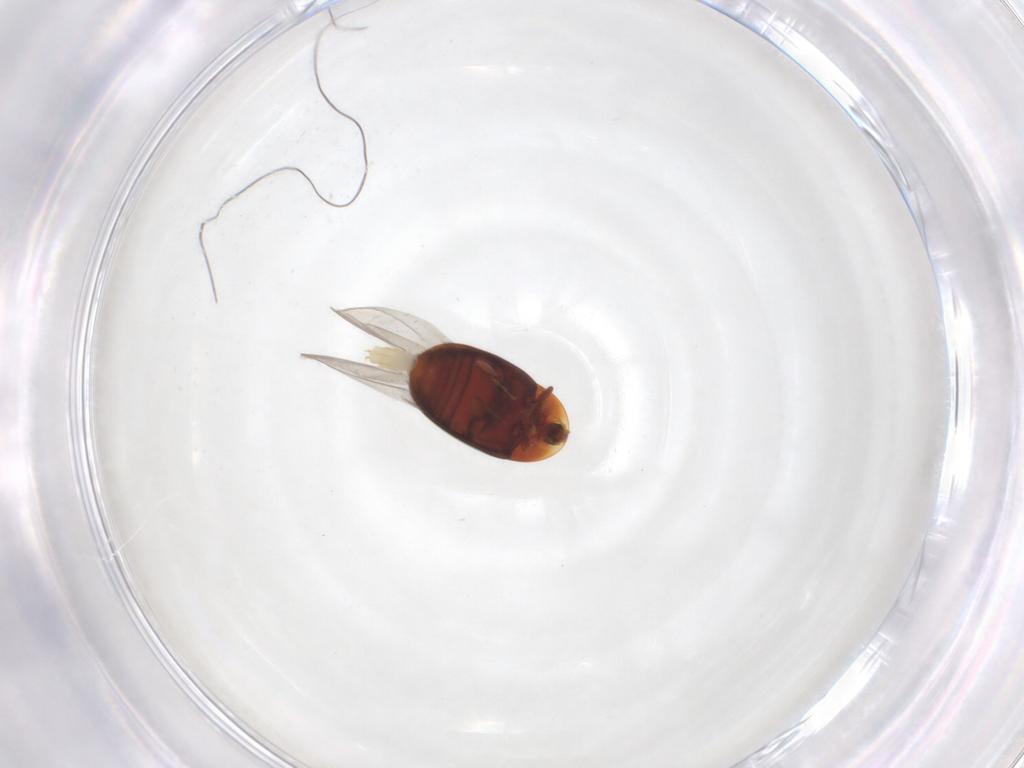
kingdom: Animalia
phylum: Arthropoda
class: Insecta
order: Coleoptera
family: Corylophidae
